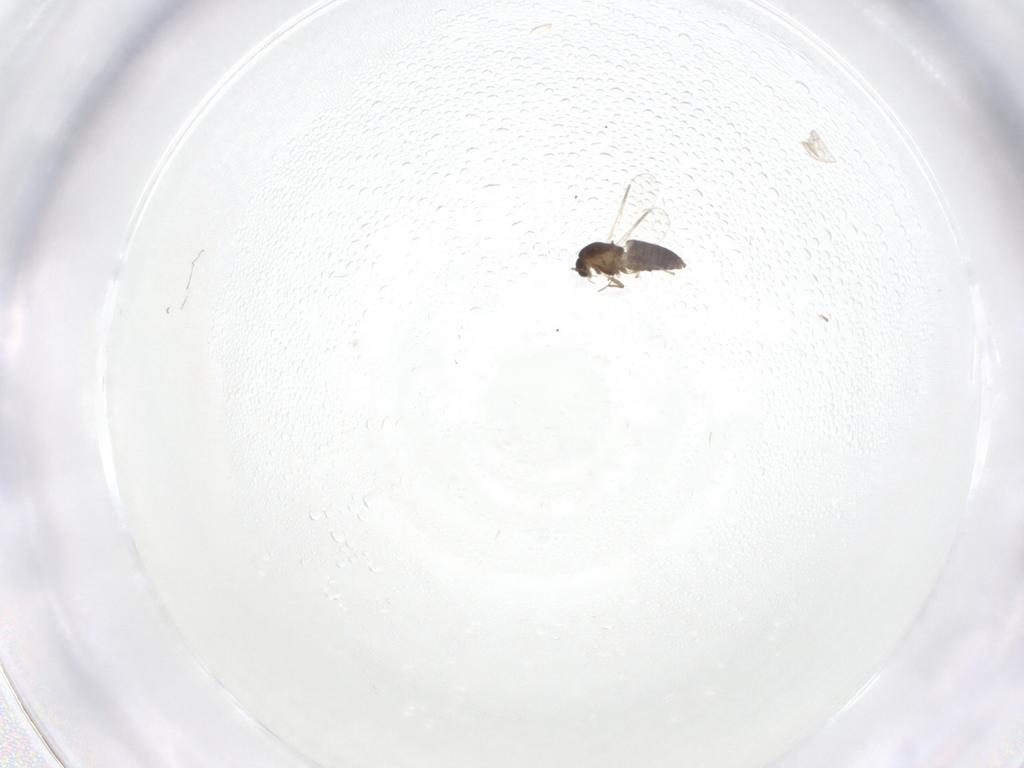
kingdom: Animalia
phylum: Arthropoda
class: Insecta
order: Diptera
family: Chironomidae
